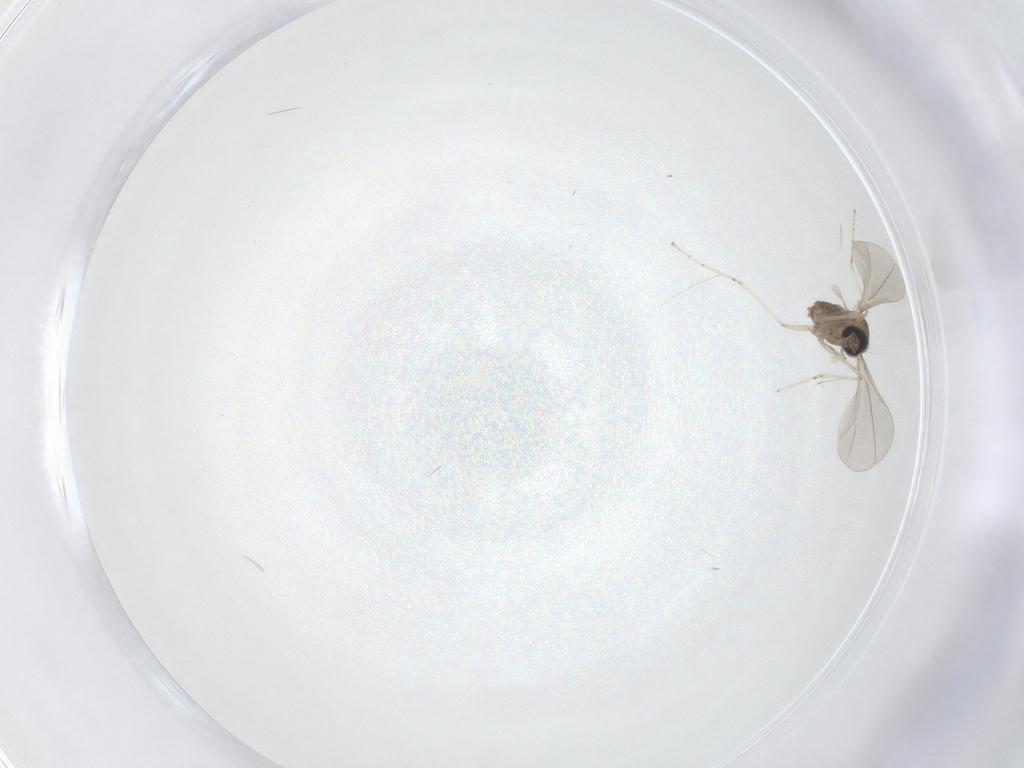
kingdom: Animalia
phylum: Arthropoda
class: Insecta
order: Diptera
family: Cecidomyiidae
